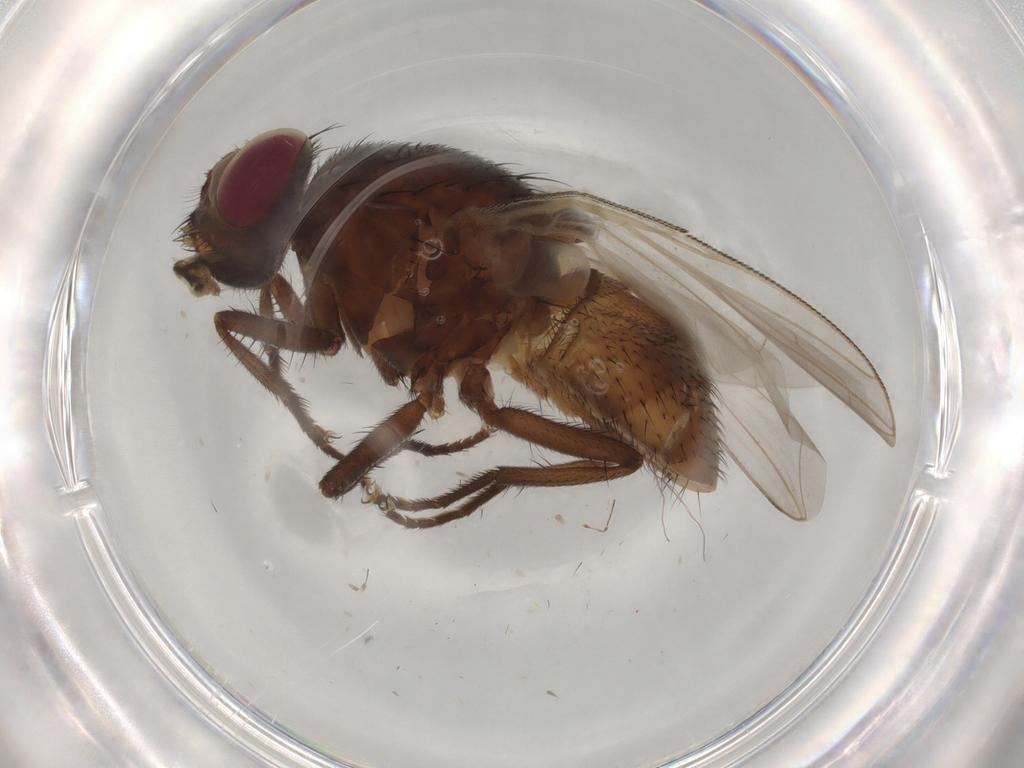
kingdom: Animalia
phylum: Arthropoda
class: Insecta
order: Diptera
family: Muscidae
